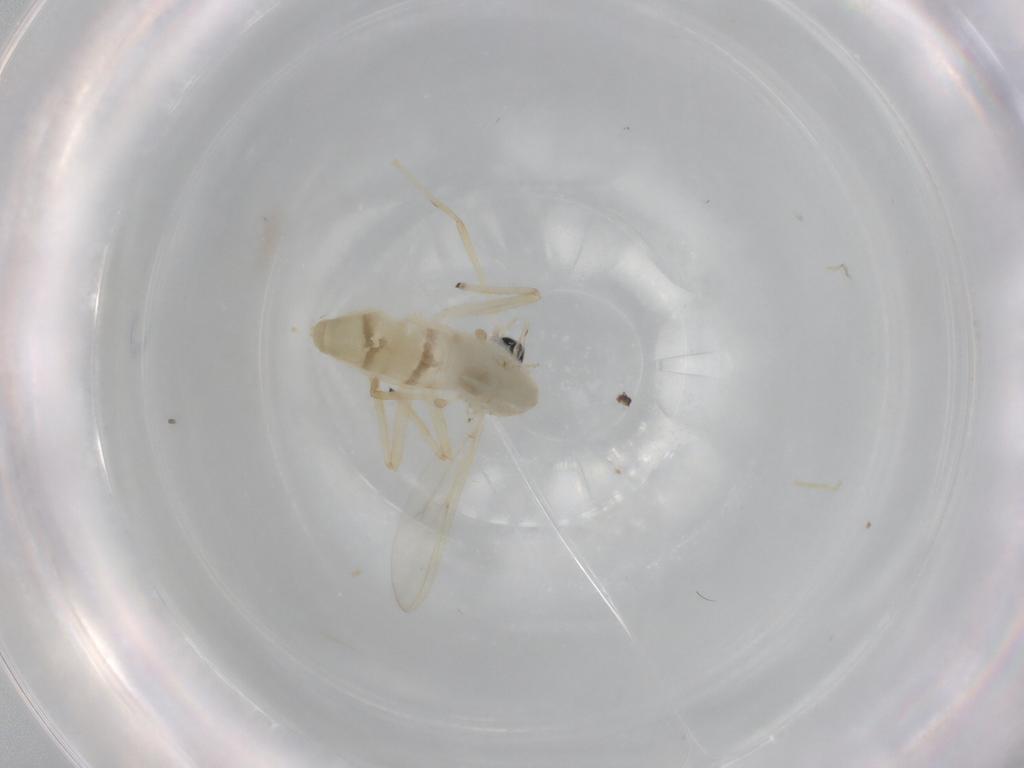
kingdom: Animalia
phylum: Arthropoda
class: Insecta
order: Diptera
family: Chironomidae
